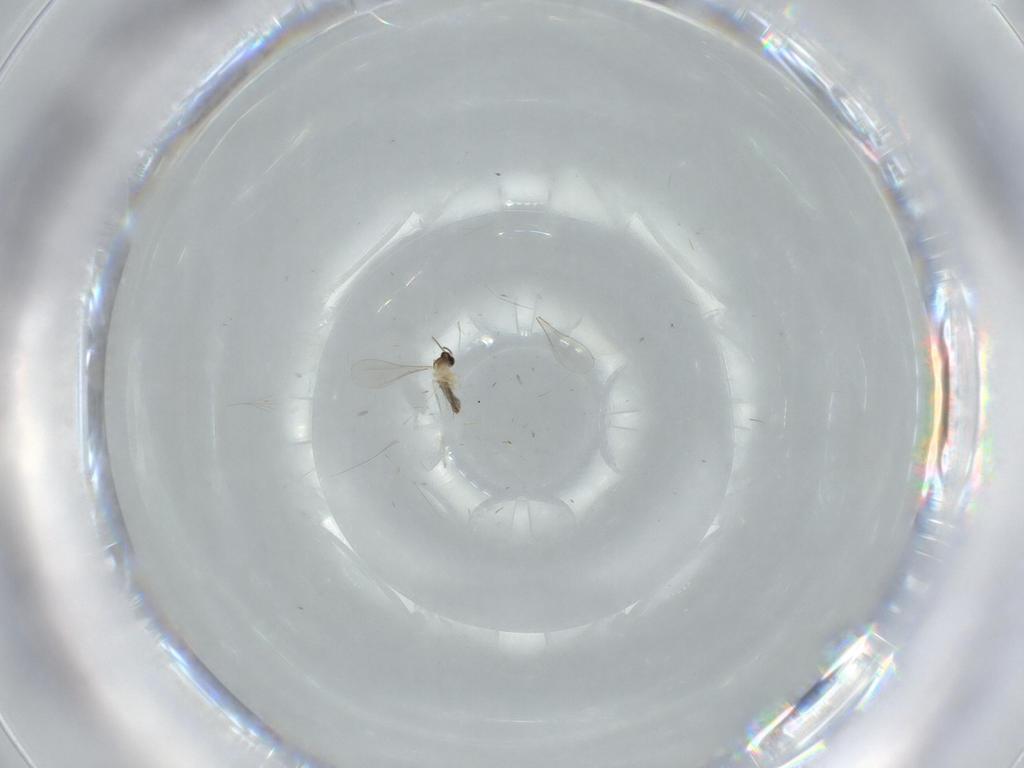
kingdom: Animalia
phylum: Arthropoda
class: Insecta
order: Diptera
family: Cecidomyiidae
